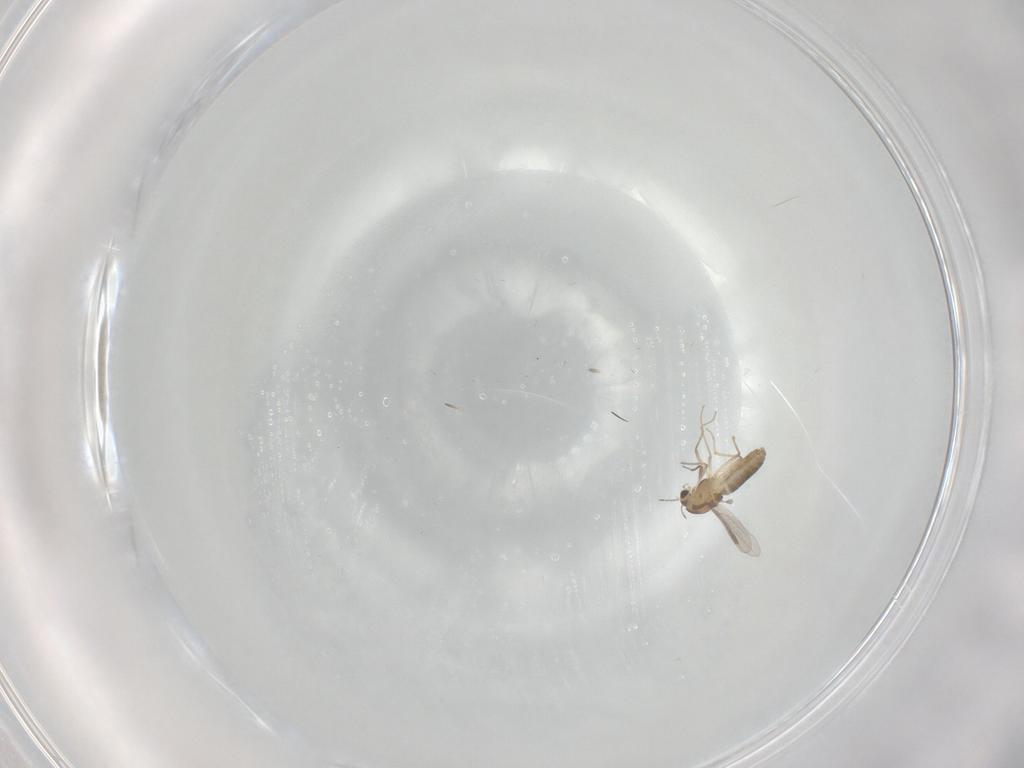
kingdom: Animalia
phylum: Arthropoda
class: Insecta
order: Diptera
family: Chironomidae
